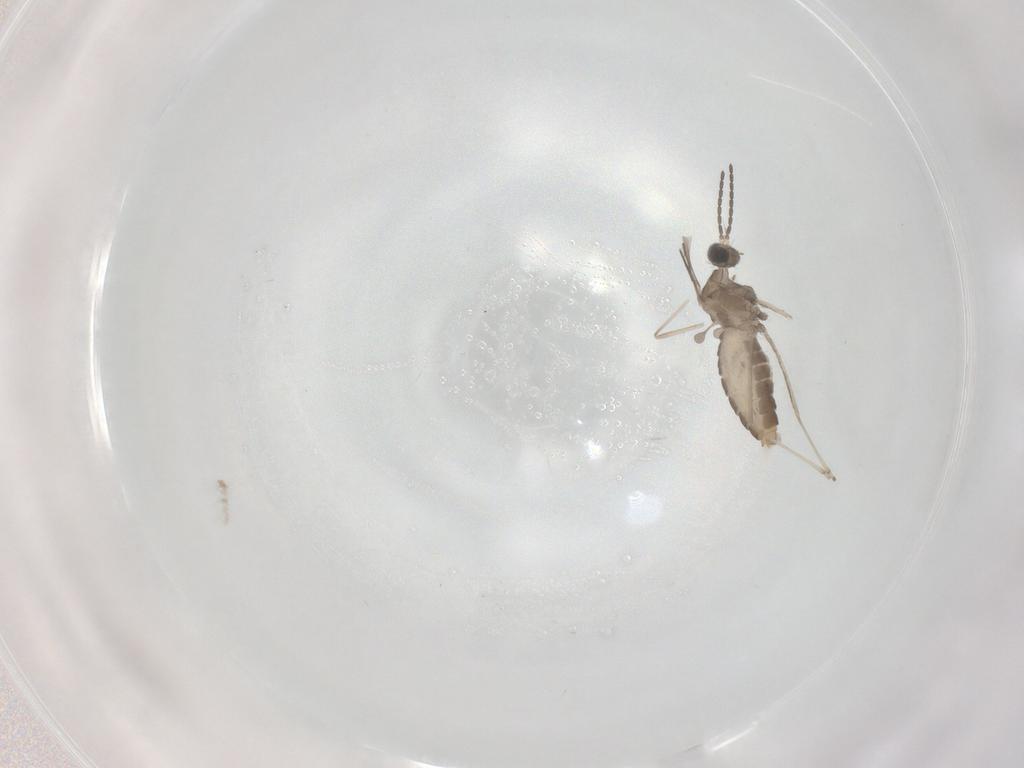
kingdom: Animalia
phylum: Arthropoda
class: Insecta
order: Diptera
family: Cecidomyiidae
